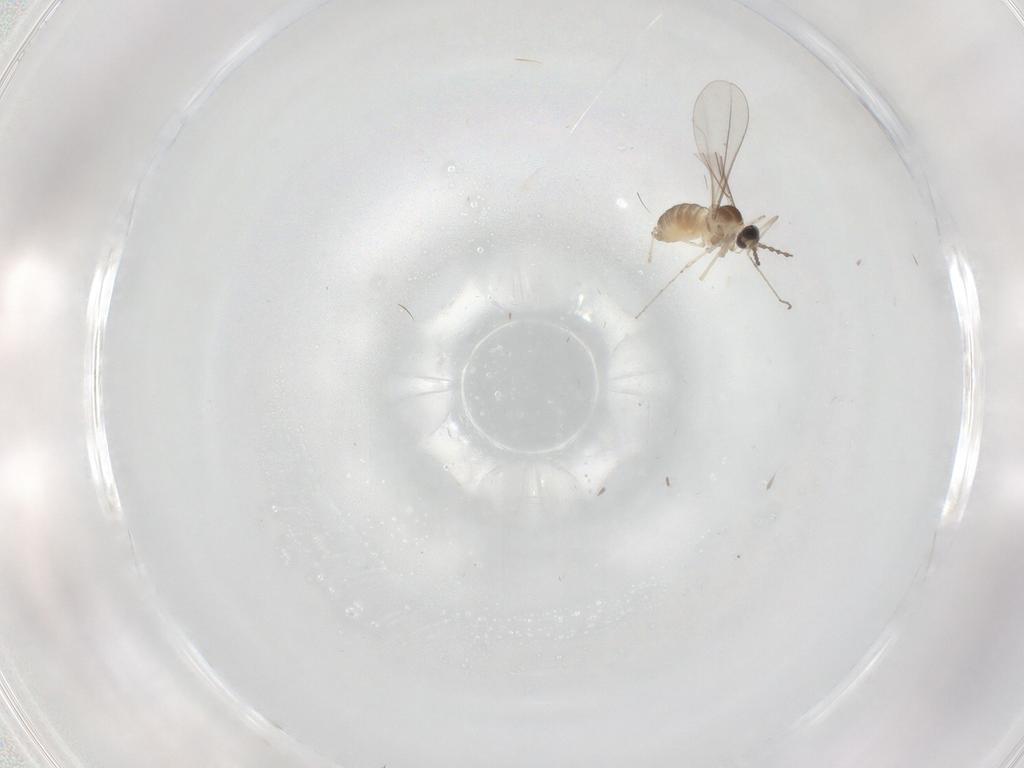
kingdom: Animalia
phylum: Arthropoda
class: Insecta
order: Diptera
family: Cecidomyiidae
